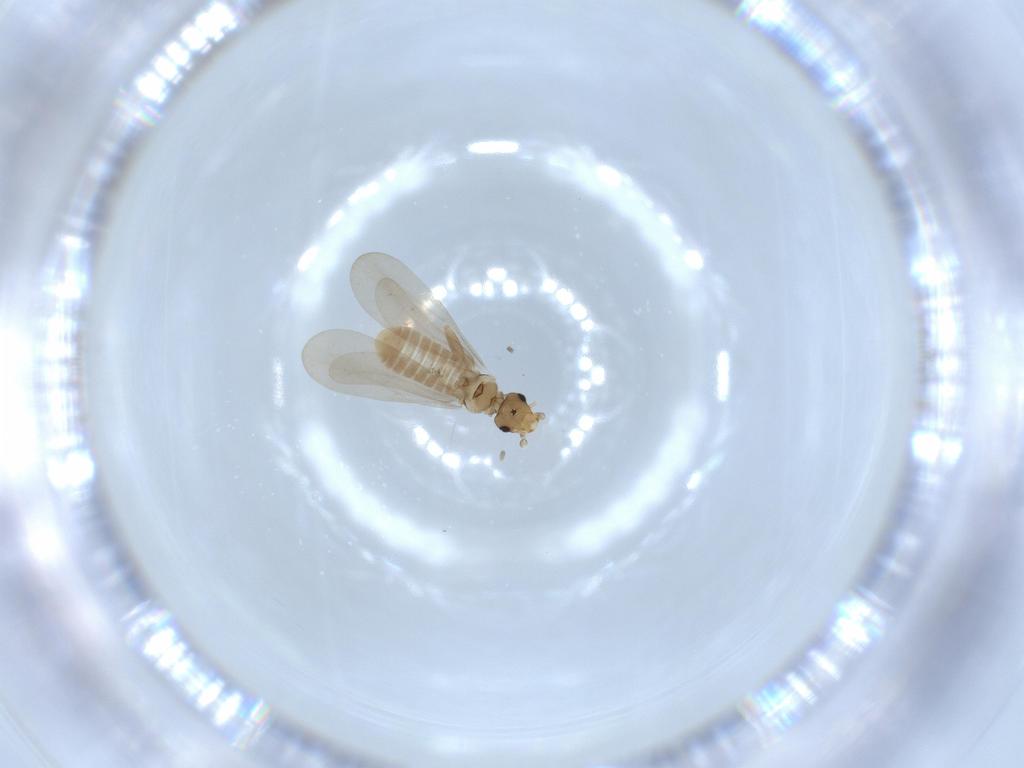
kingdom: Animalia
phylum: Arthropoda
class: Insecta
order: Psocodea
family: Liposcelididae
